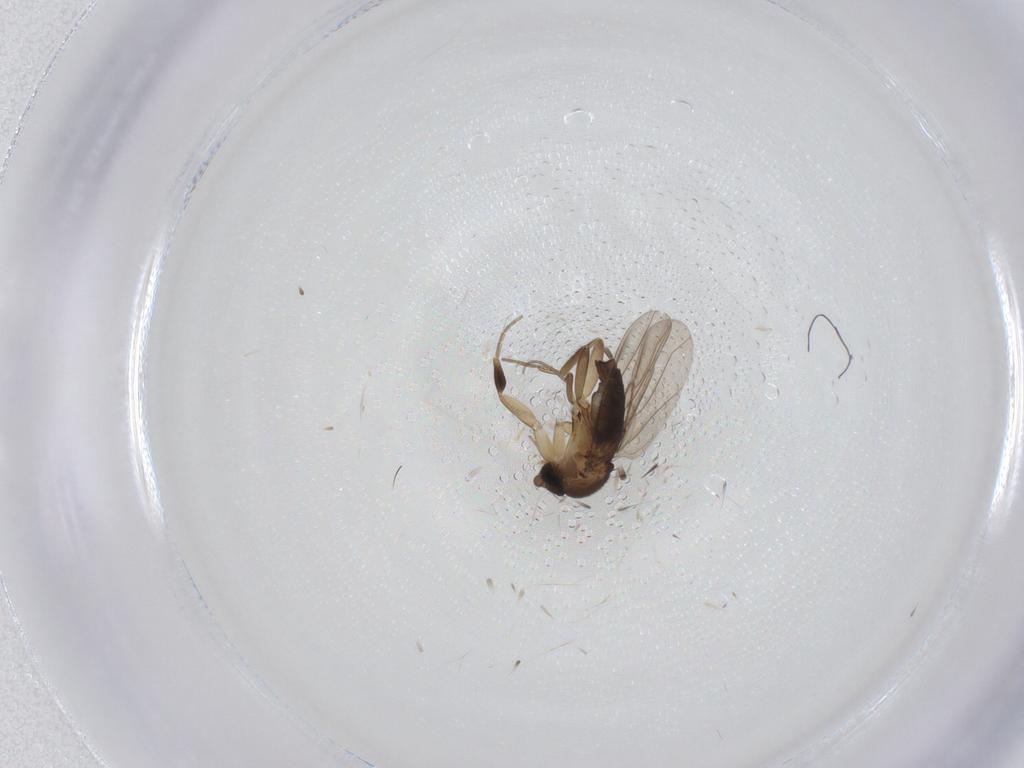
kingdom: Animalia
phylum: Arthropoda
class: Insecta
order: Diptera
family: Phoridae
